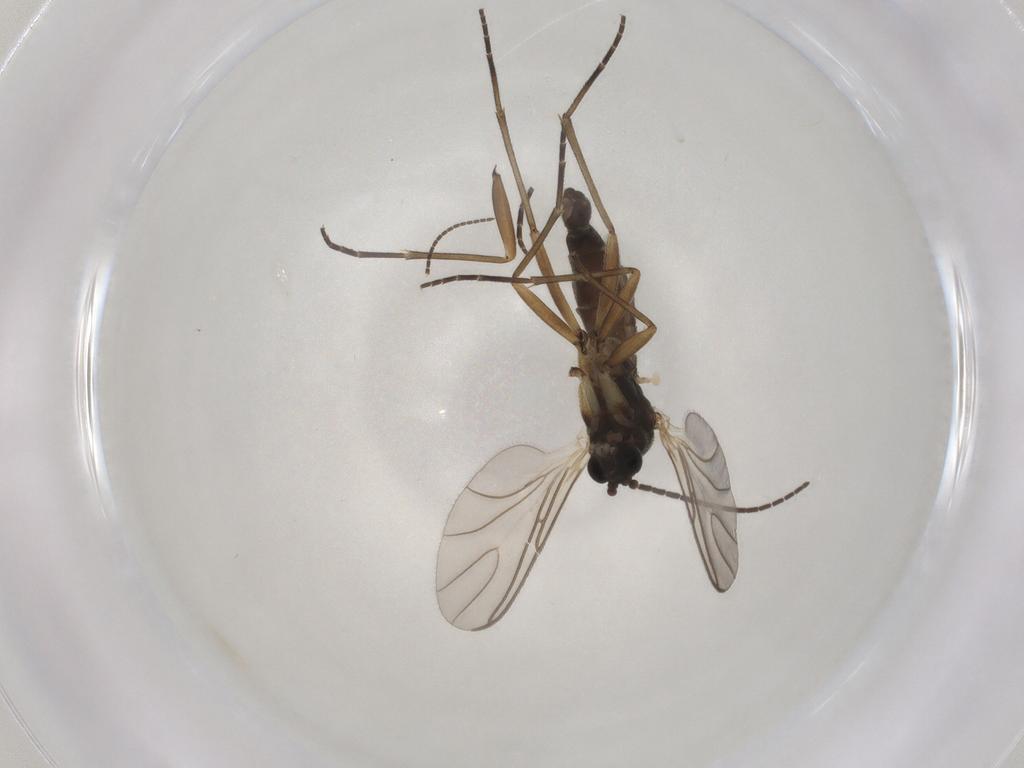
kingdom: Animalia
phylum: Arthropoda
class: Insecta
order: Diptera
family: Sciaridae
